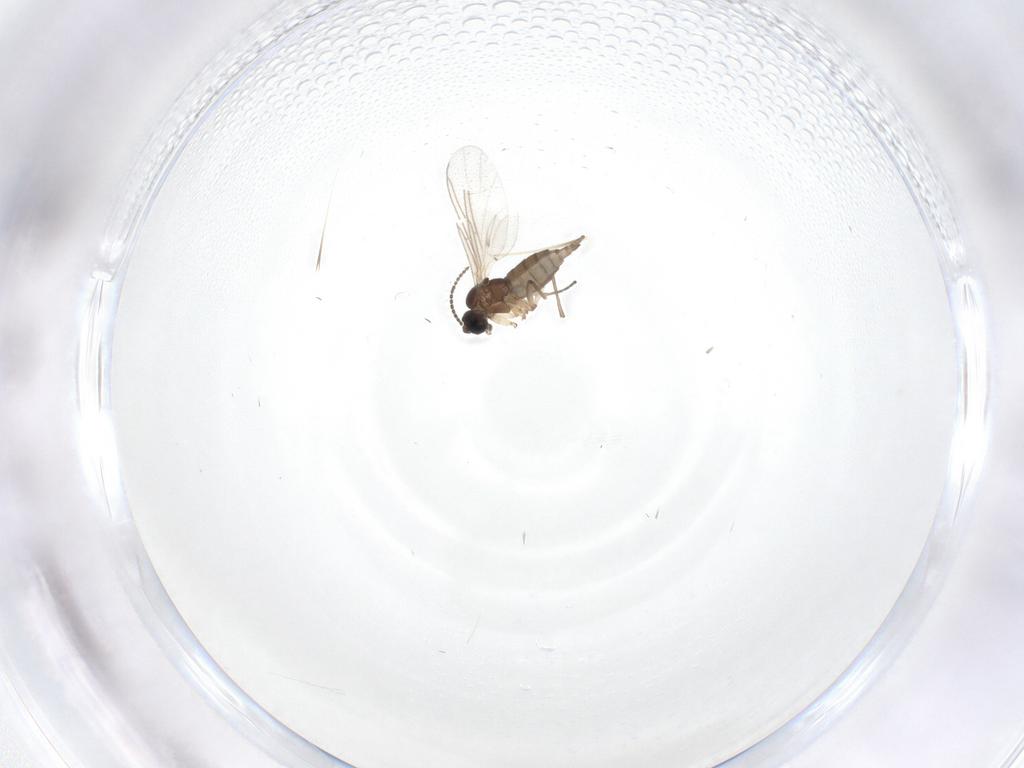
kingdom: Animalia
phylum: Arthropoda
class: Insecta
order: Diptera
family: Sciaridae
